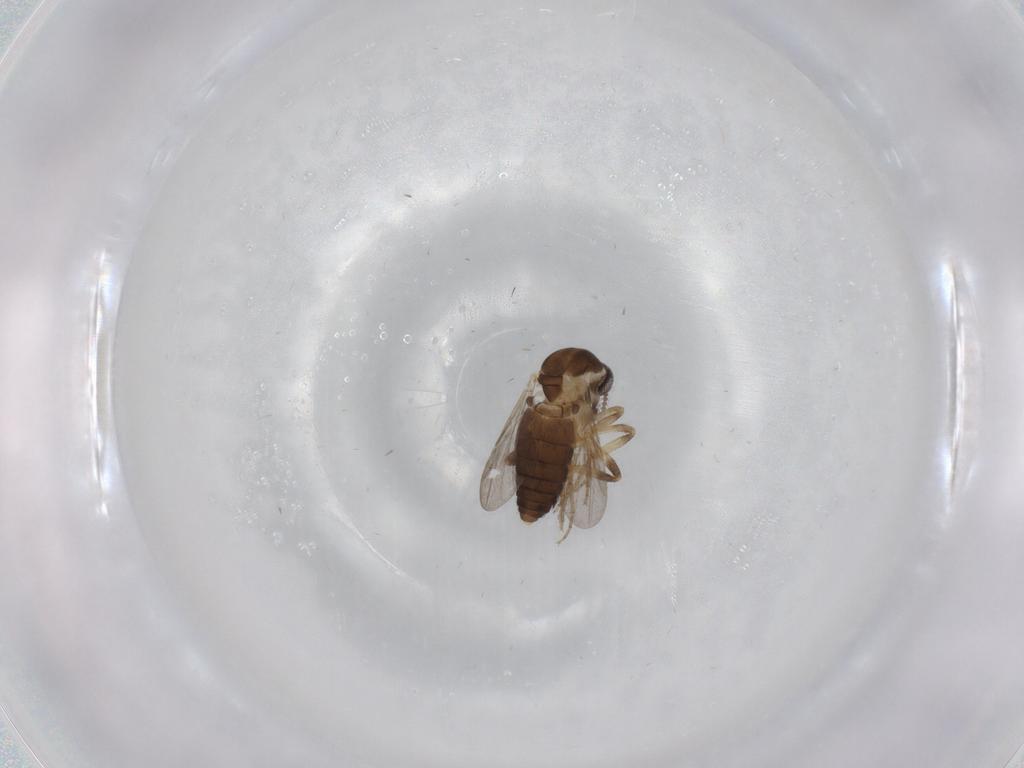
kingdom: Animalia
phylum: Arthropoda
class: Insecta
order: Diptera
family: Ceratopogonidae
